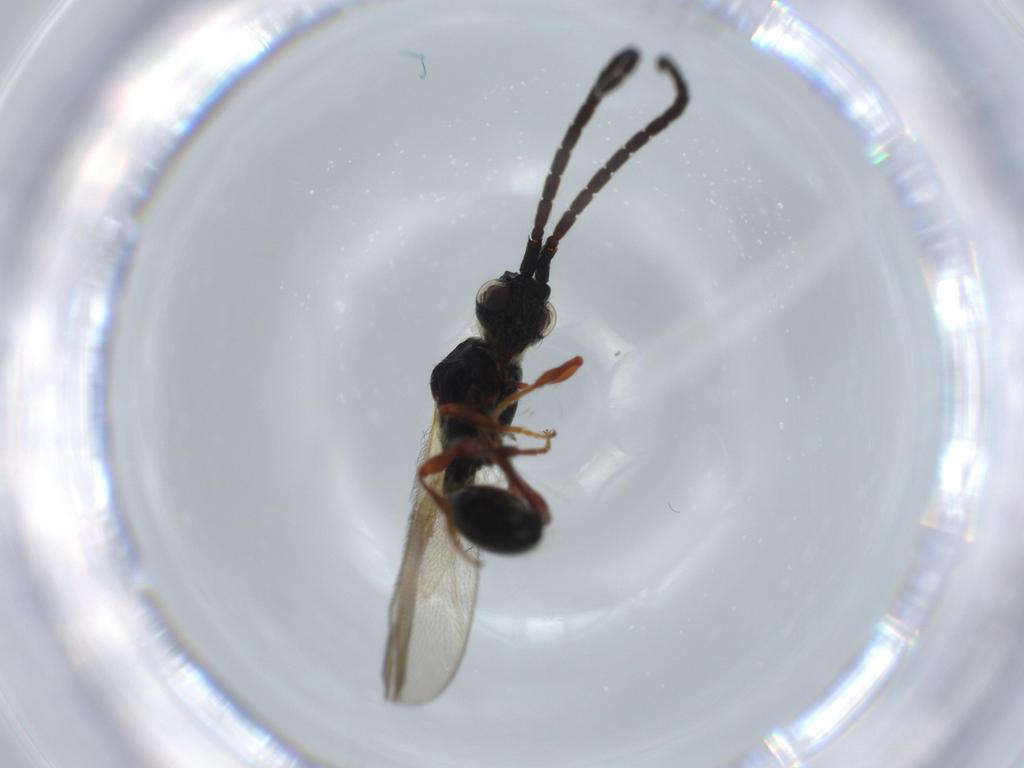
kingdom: Animalia
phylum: Arthropoda
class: Insecta
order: Hymenoptera
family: Diapriidae
